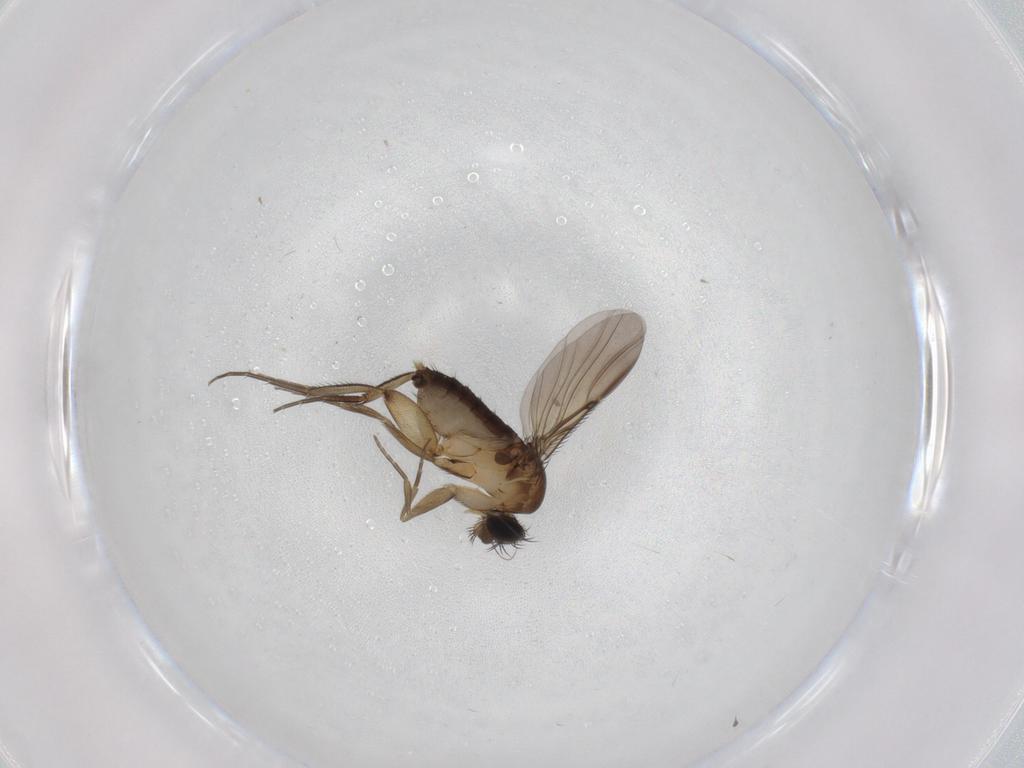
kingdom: Animalia
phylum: Arthropoda
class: Insecta
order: Diptera
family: Phoridae
